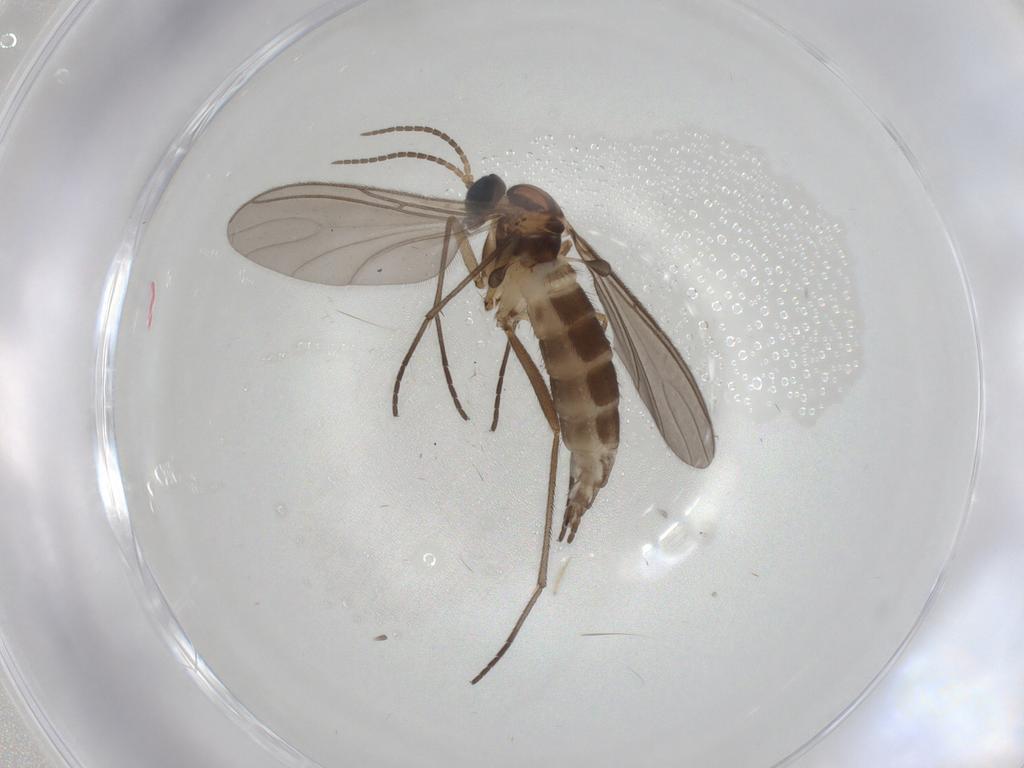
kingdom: Animalia
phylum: Arthropoda
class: Insecta
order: Diptera
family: Sciaridae
